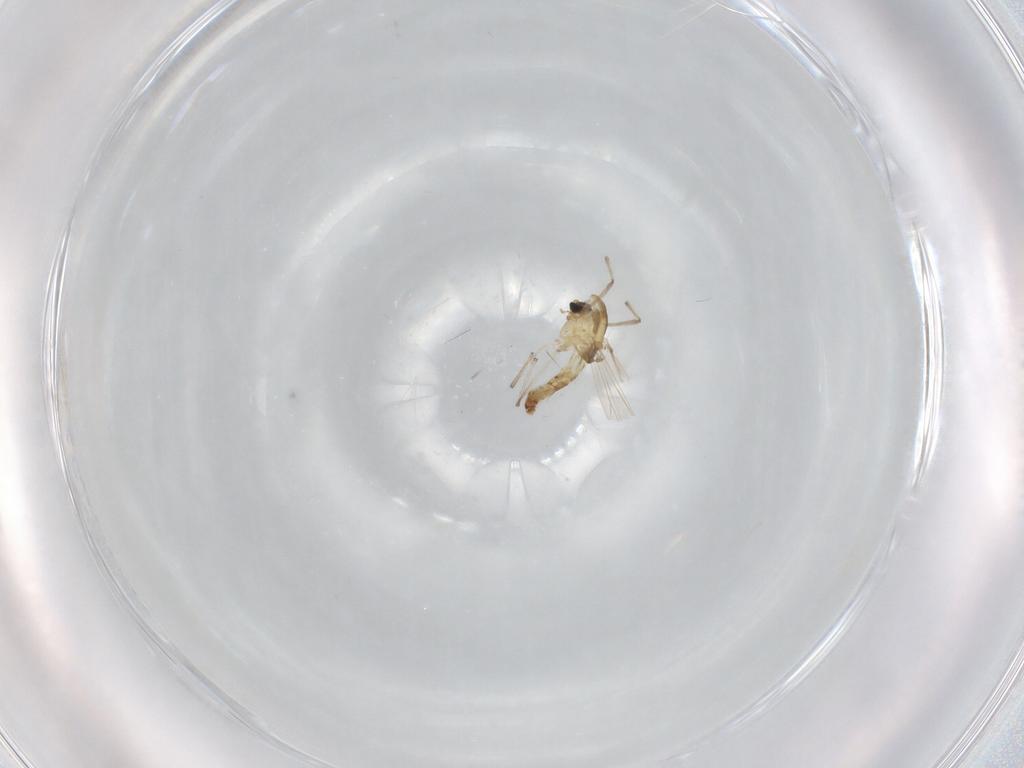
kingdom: Animalia
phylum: Arthropoda
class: Insecta
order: Diptera
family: Chironomidae
